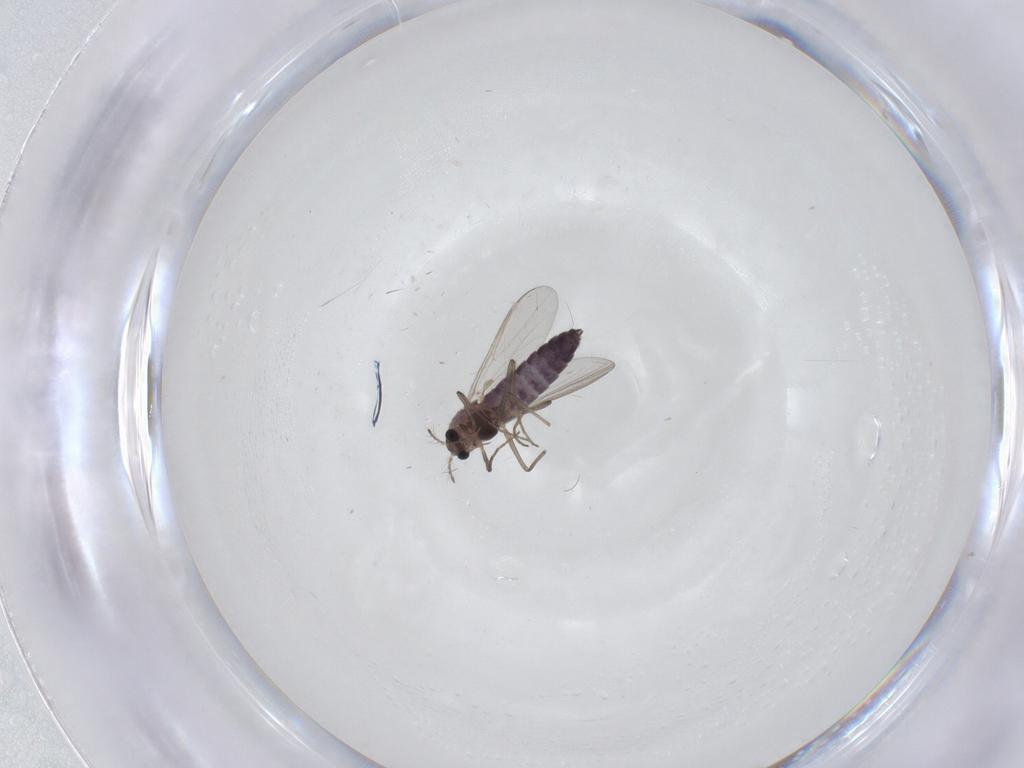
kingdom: Animalia
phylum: Arthropoda
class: Insecta
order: Diptera
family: Chironomidae
